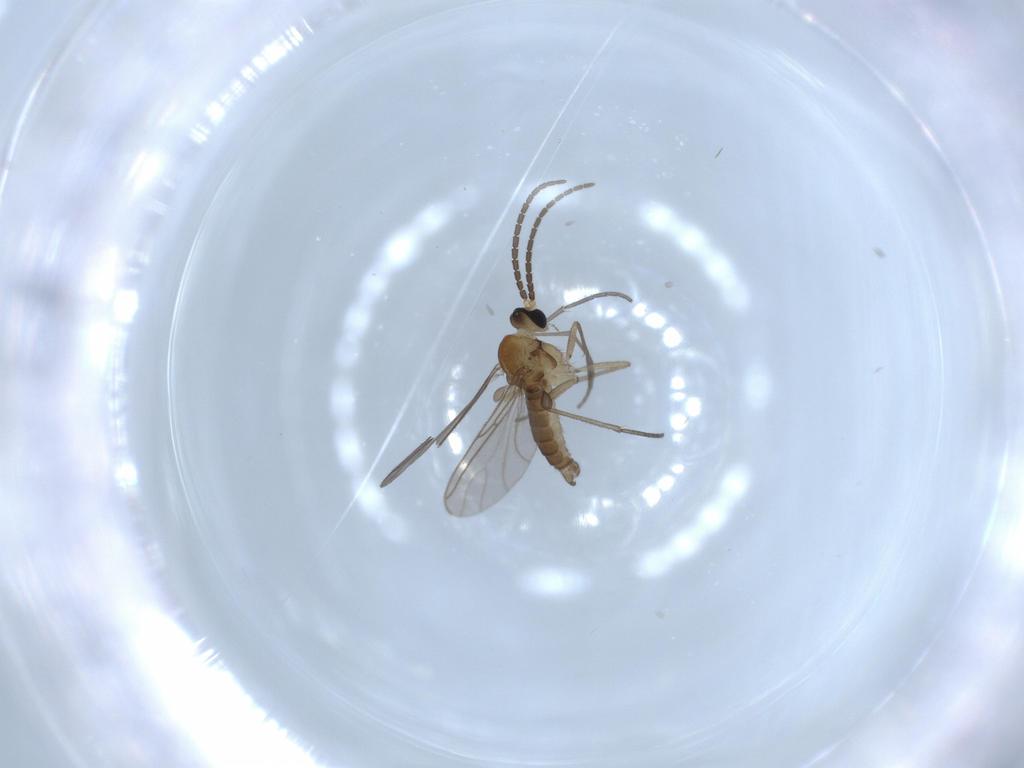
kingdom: Animalia
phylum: Arthropoda
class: Insecta
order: Diptera
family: Sciaridae
